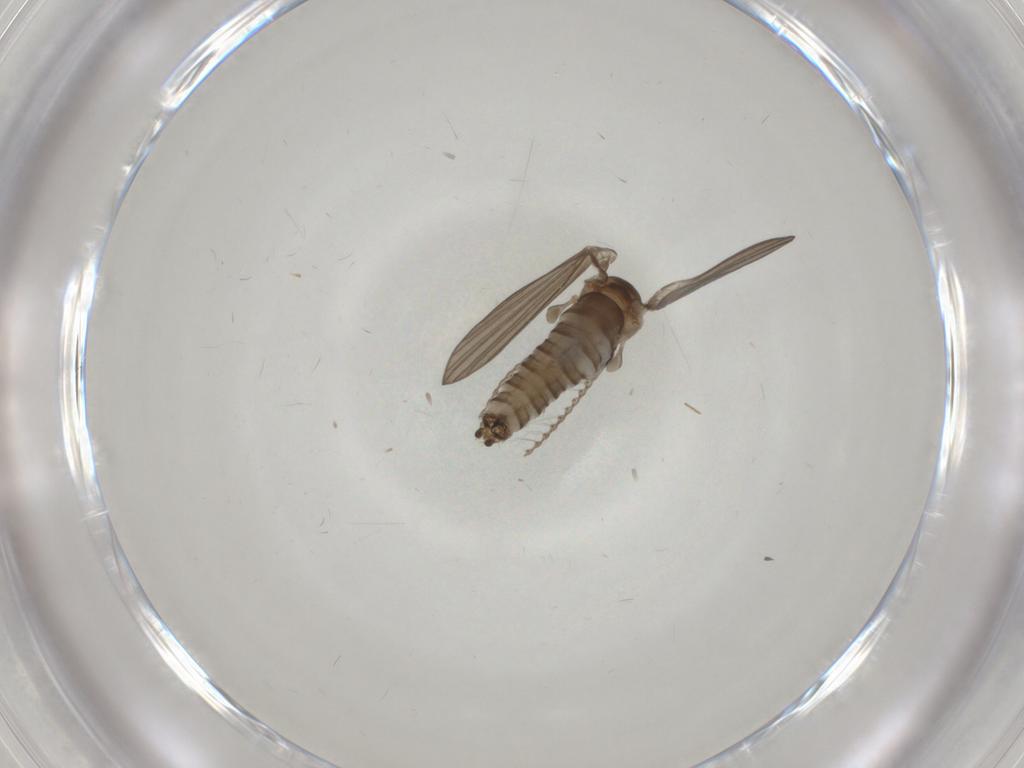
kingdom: Animalia
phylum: Arthropoda
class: Insecta
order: Diptera
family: Psychodidae
